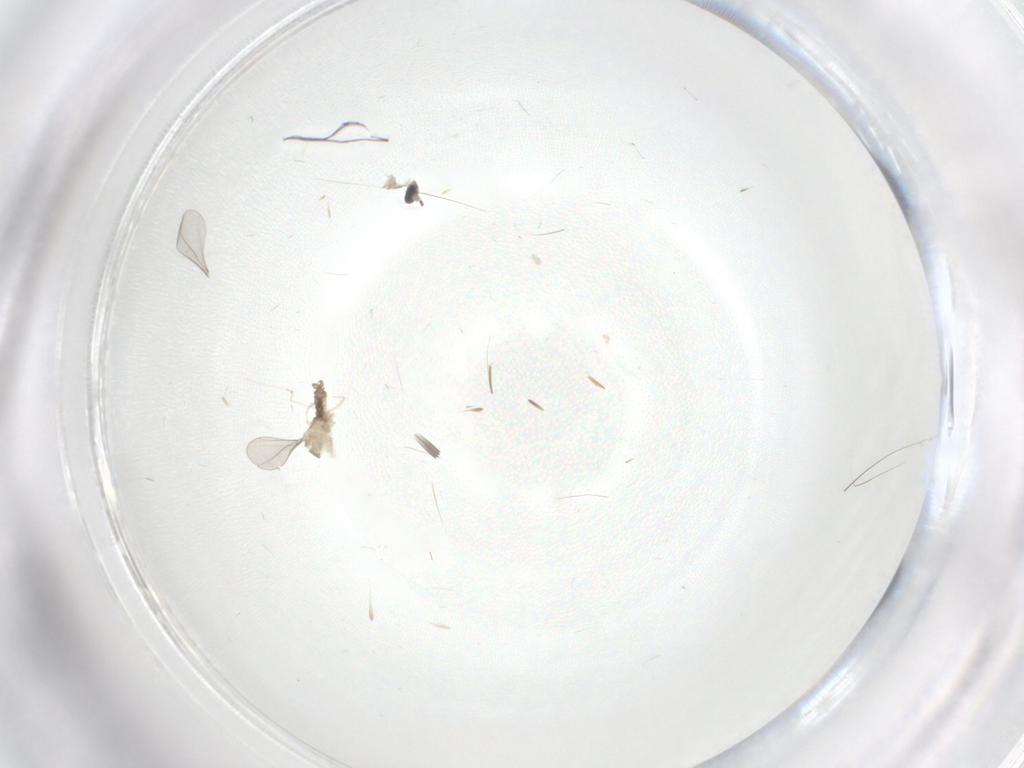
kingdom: Animalia
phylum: Arthropoda
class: Insecta
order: Diptera
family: Cecidomyiidae
